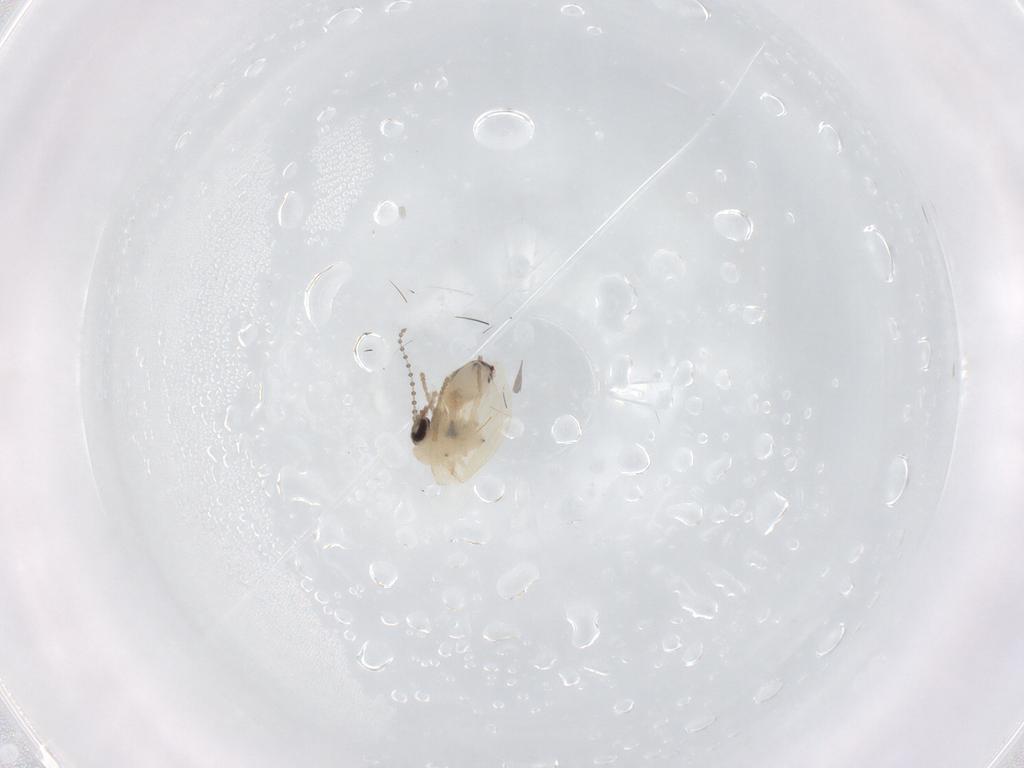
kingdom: Animalia
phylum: Arthropoda
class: Insecta
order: Diptera
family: Psychodidae
